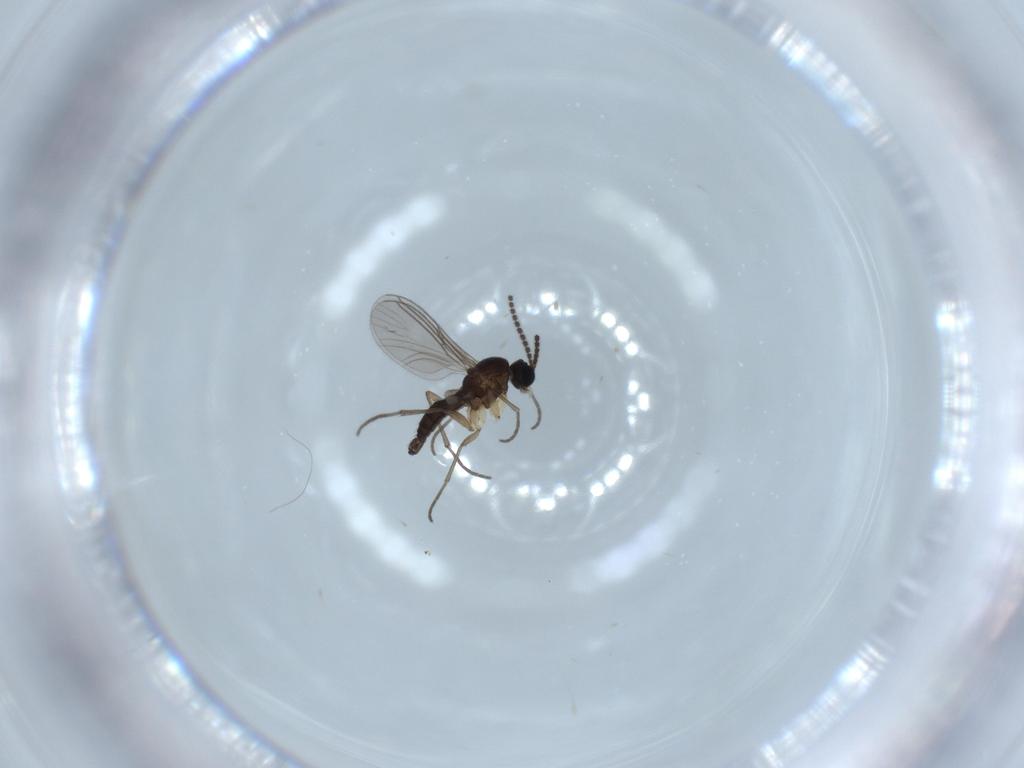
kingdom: Animalia
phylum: Arthropoda
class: Insecta
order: Diptera
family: Sciaridae
